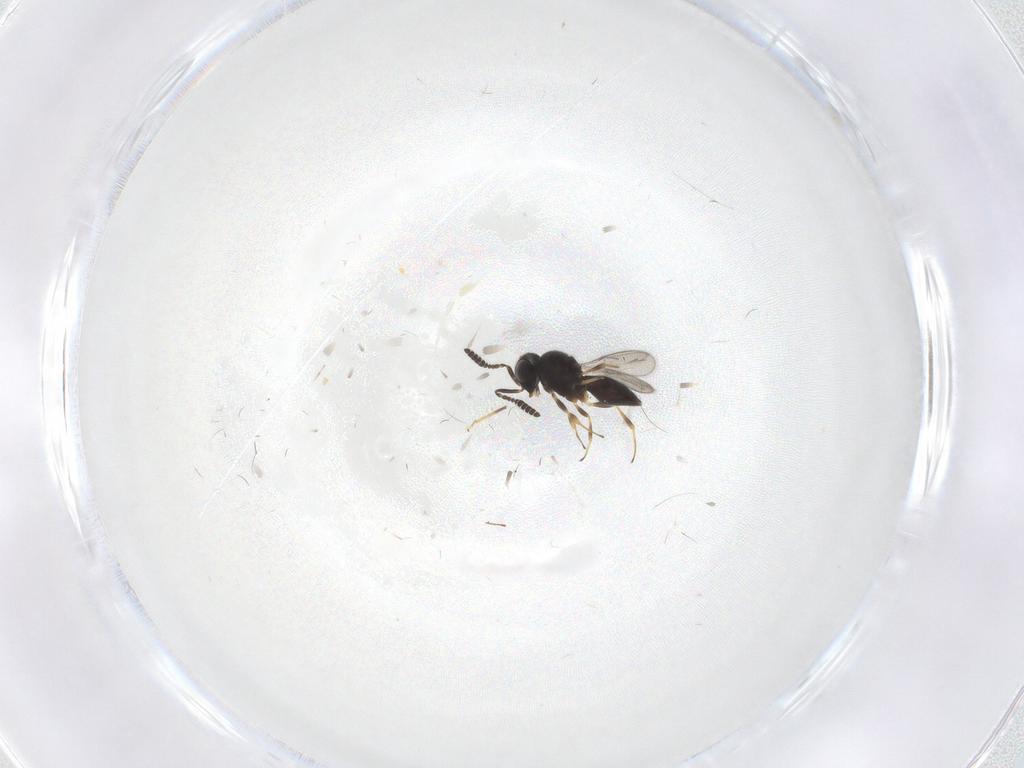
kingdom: Animalia
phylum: Arthropoda
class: Insecta
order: Hymenoptera
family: Scelionidae
